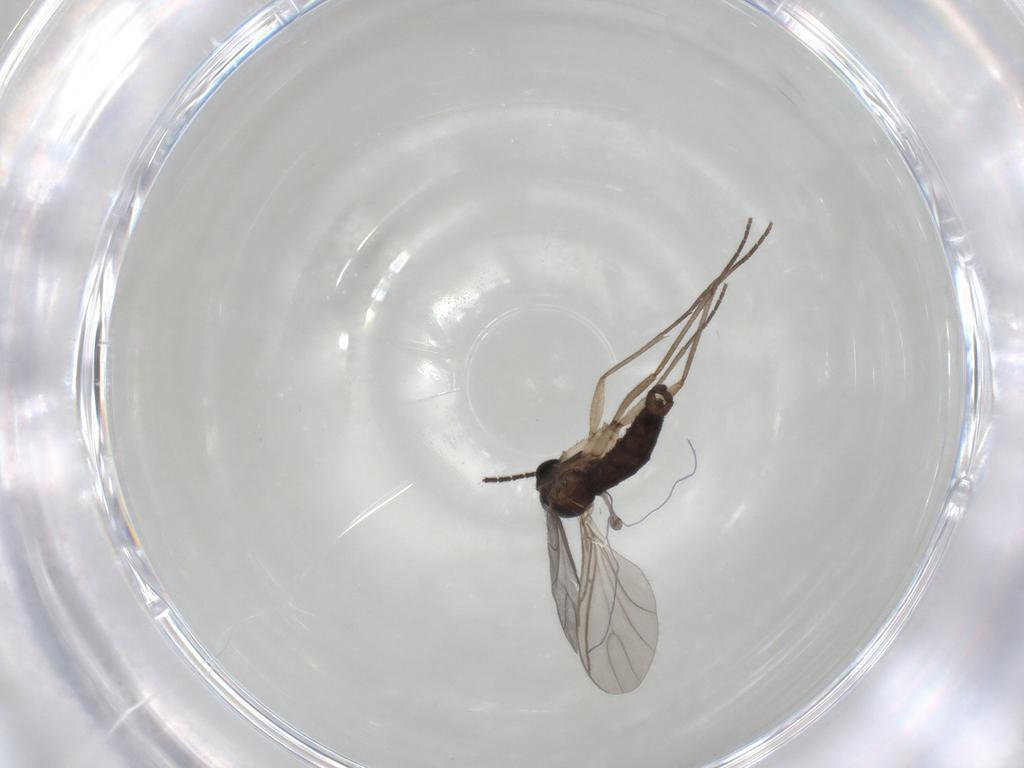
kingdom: Animalia
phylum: Arthropoda
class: Insecta
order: Diptera
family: Sciaridae
